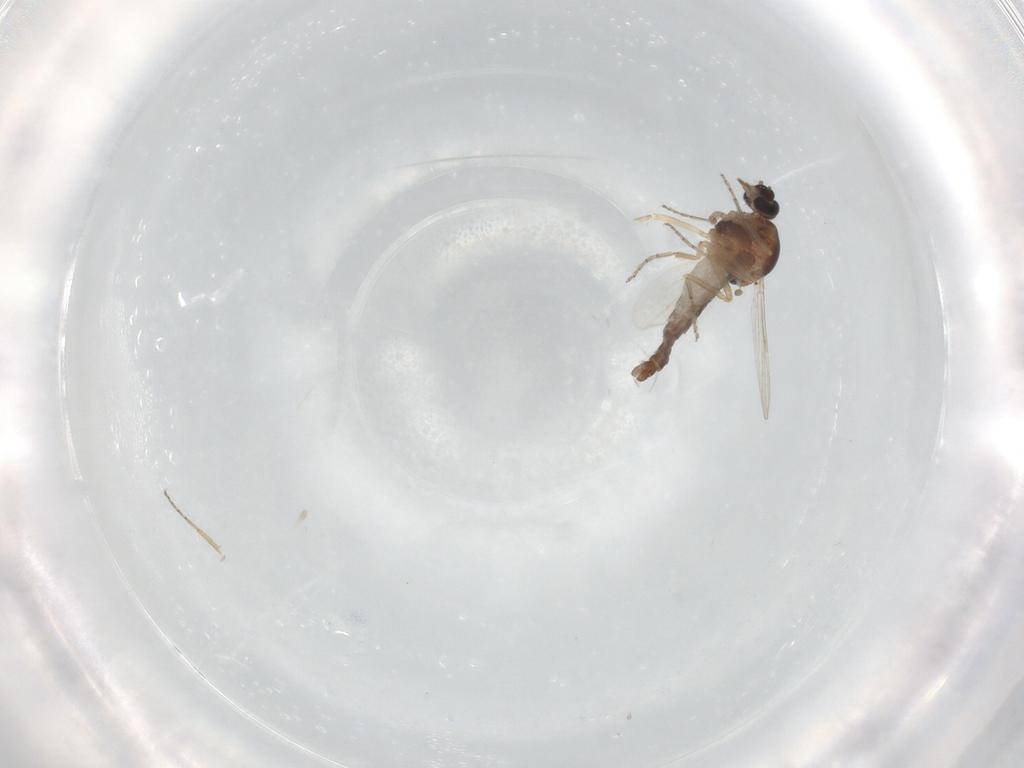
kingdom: Animalia
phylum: Arthropoda
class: Insecta
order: Diptera
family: Ceratopogonidae
